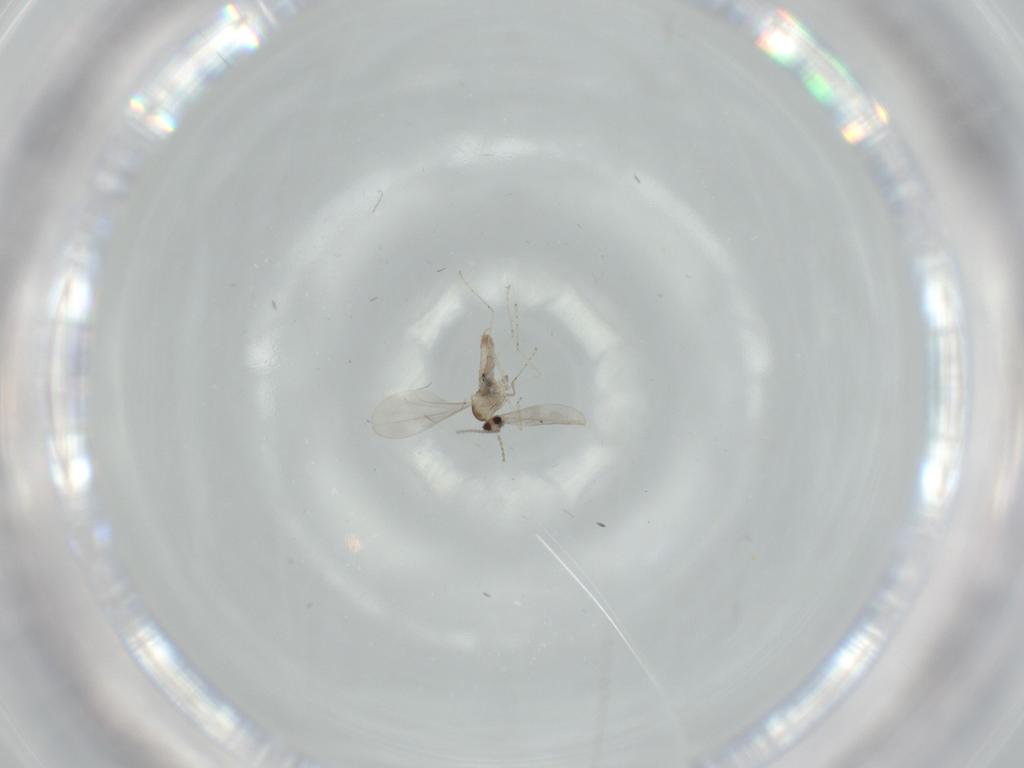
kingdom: Animalia
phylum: Arthropoda
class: Insecta
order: Diptera
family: Cecidomyiidae
